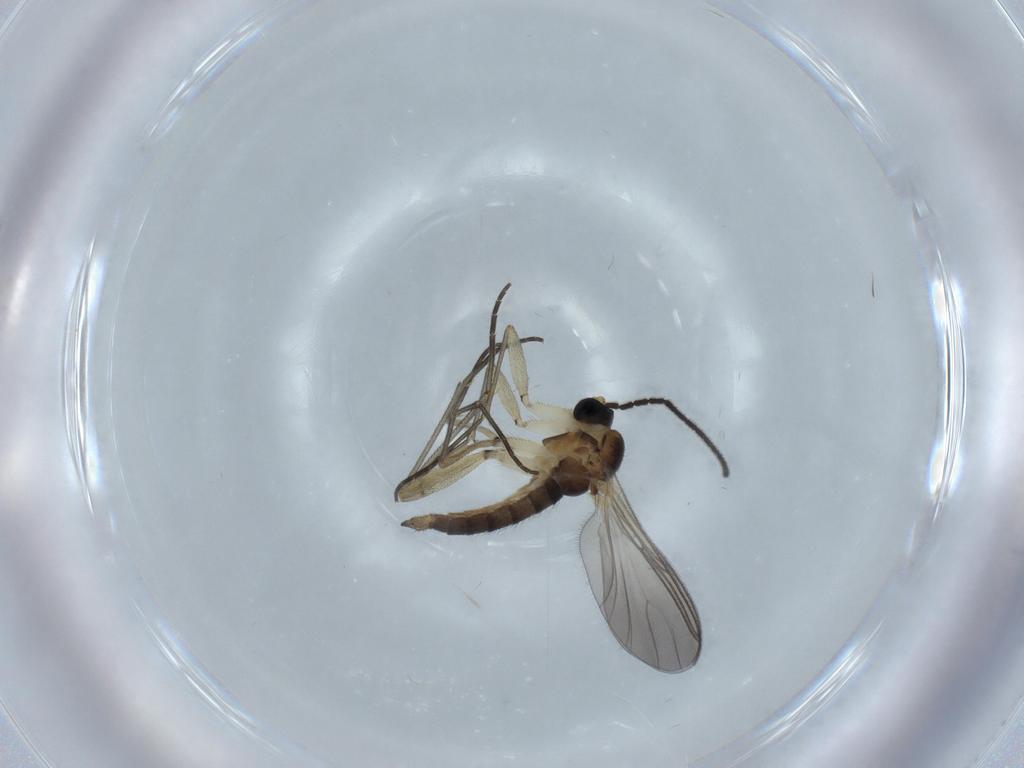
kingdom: Animalia
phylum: Arthropoda
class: Insecta
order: Diptera
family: Sciaridae
